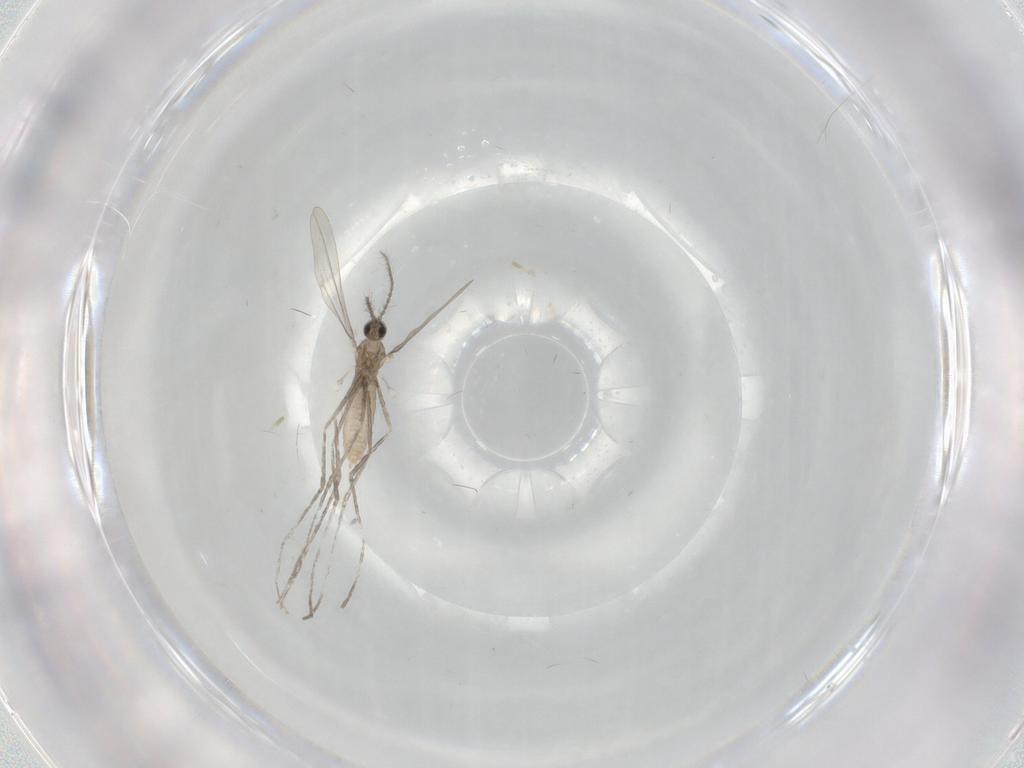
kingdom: Animalia
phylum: Arthropoda
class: Insecta
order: Diptera
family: Cecidomyiidae
